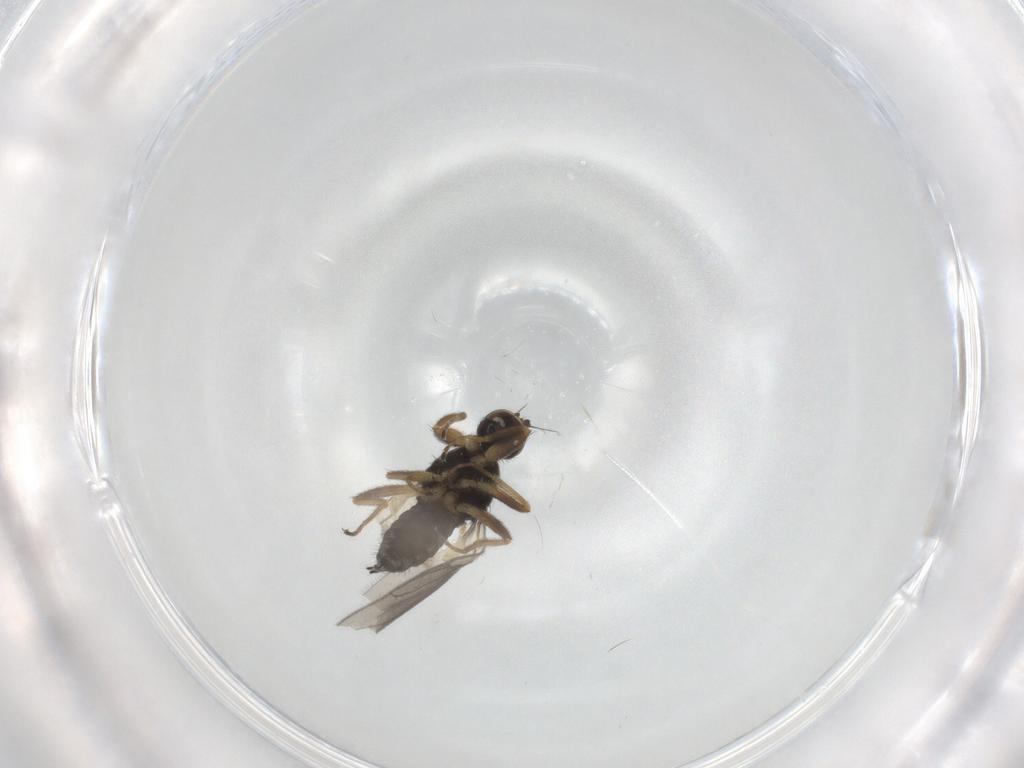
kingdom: Animalia
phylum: Arthropoda
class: Insecta
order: Diptera
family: Hybotidae
